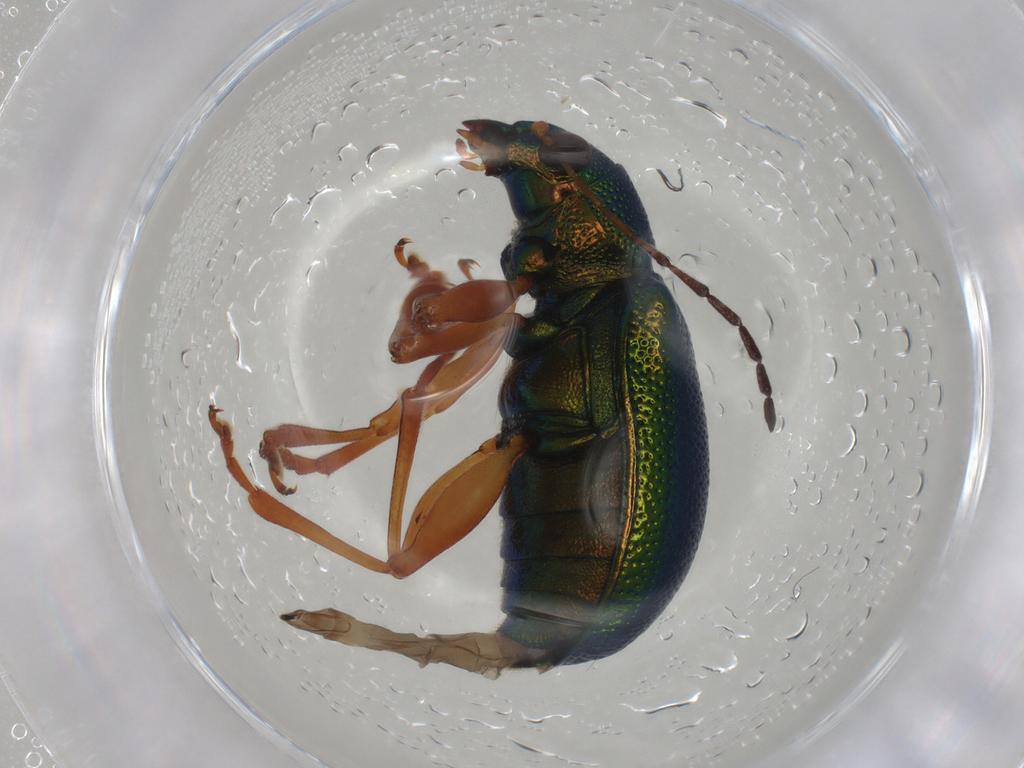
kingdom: Animalia
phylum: Arthropoda
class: Insecta
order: Coleoptera
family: Chrysomelidae
